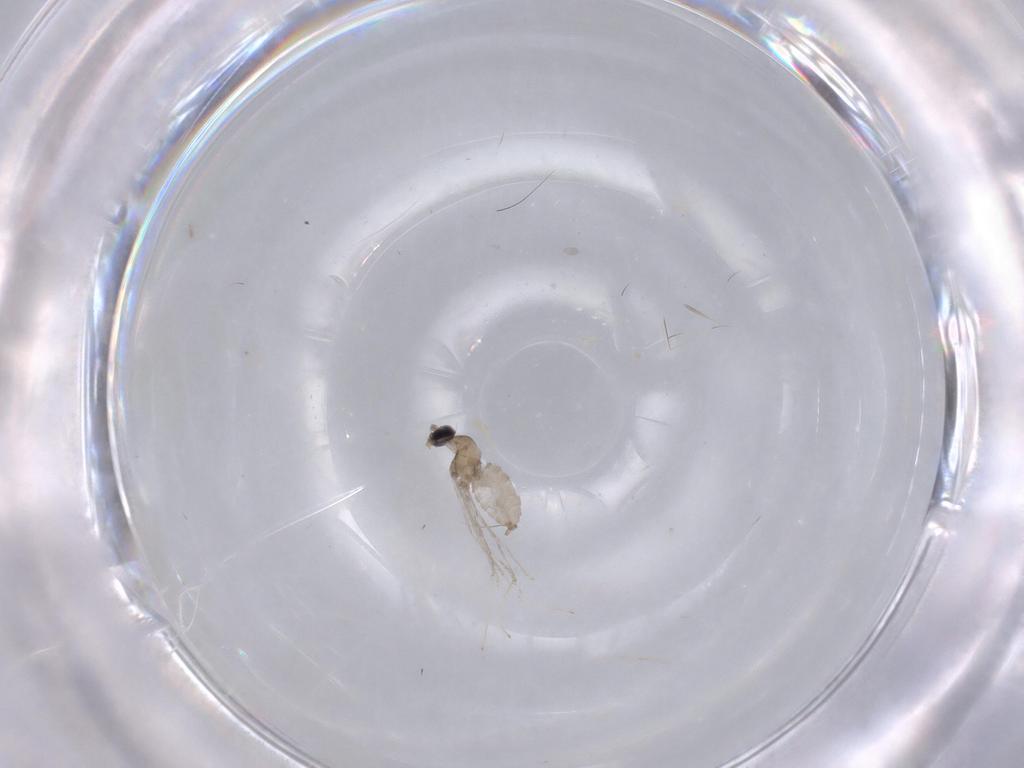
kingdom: Animalia
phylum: Arthropoda
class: Insecta
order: Diptera
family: Cecidomyiidae
